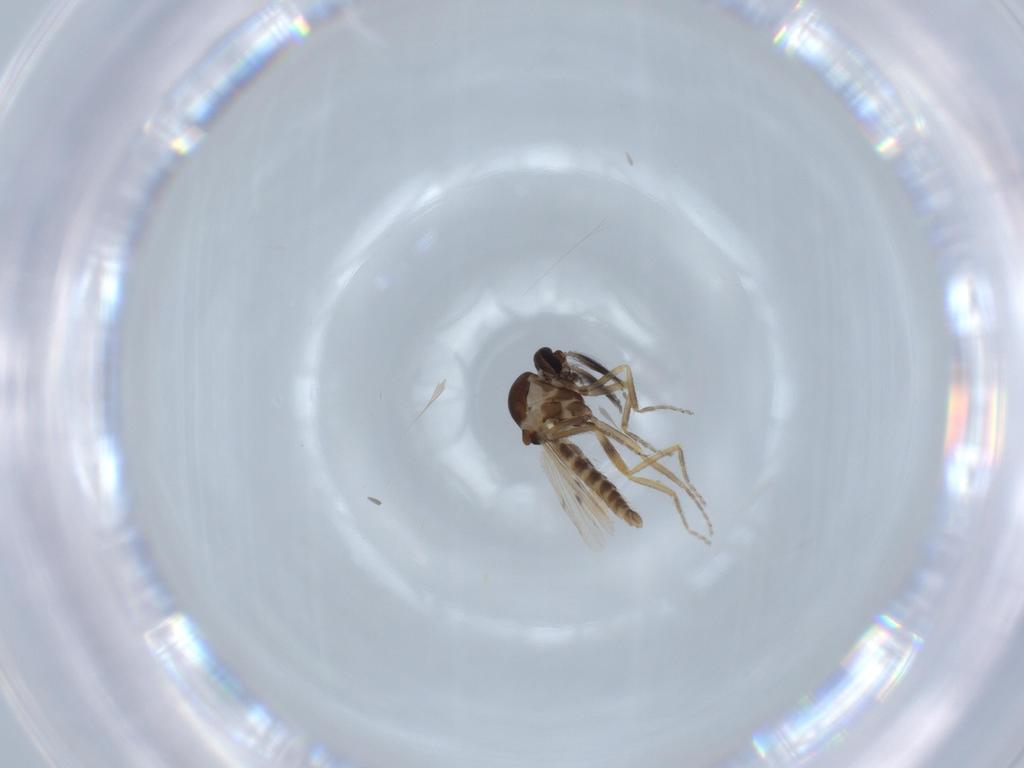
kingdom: Animalia
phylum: Arthropoda
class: Insecta
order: Diptera
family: Ceratopogonidae
